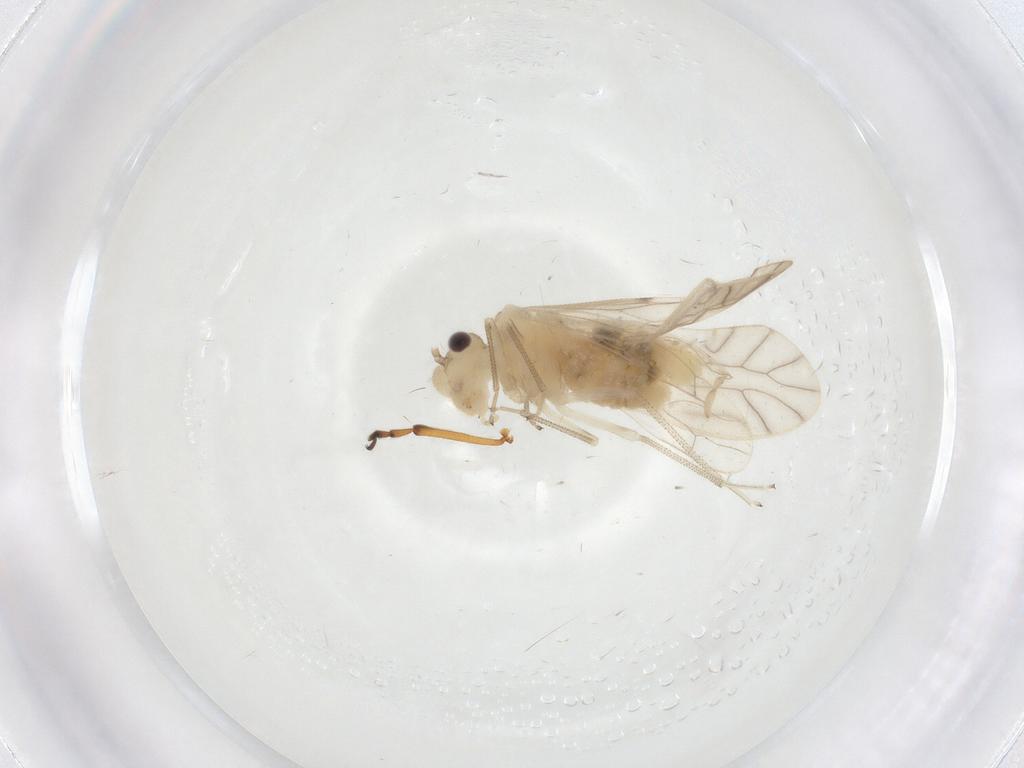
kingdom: Animalia
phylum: Arthropoda
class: Insecta
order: Psocodea
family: Caeciliusidae
